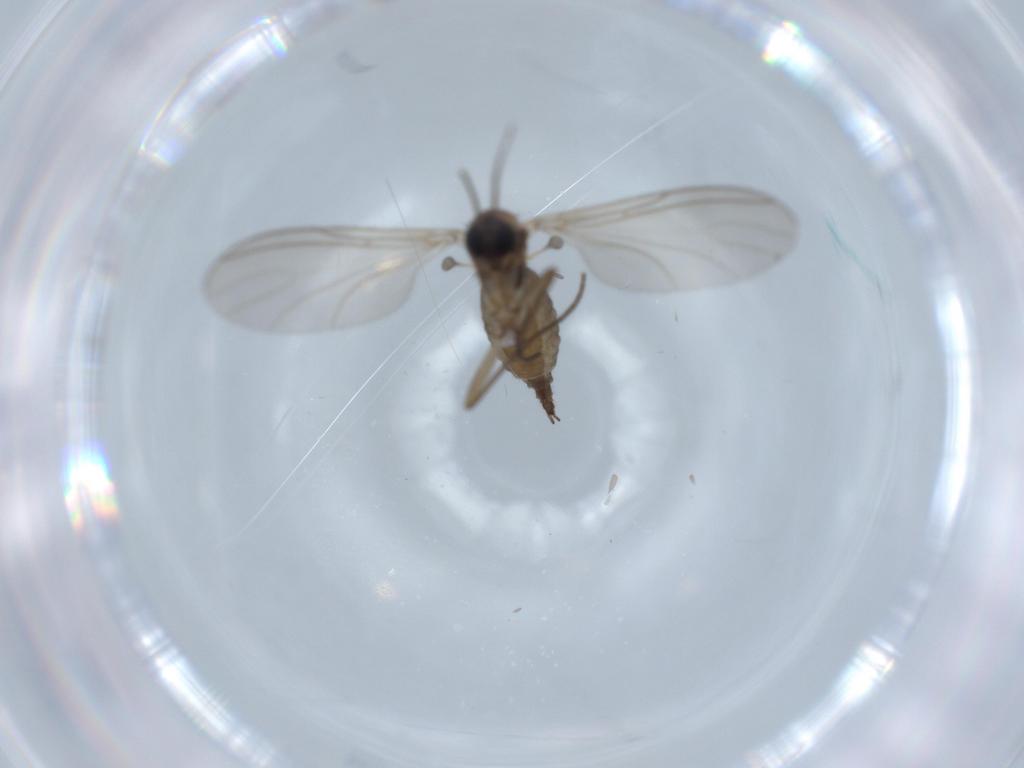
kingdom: Animalia
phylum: Arthropoda
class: Insecta
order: Diptera
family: Sciaridae
